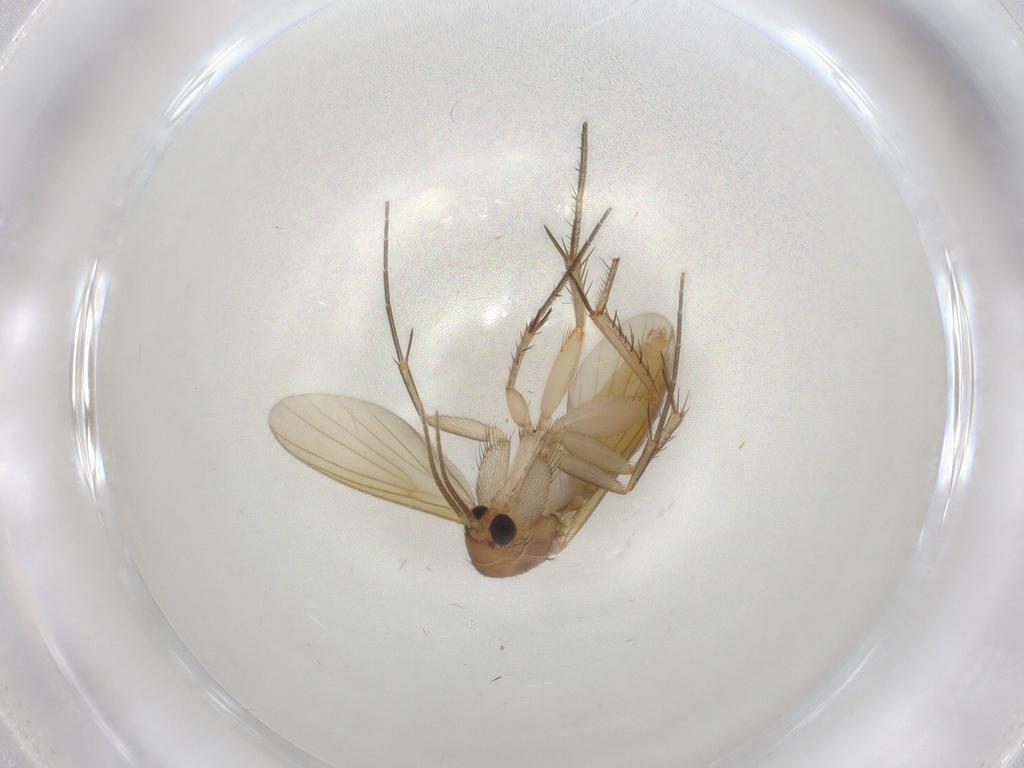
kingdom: Animalia
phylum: Arthropoda
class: Insecta
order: Diptera
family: Mycetophilidae
